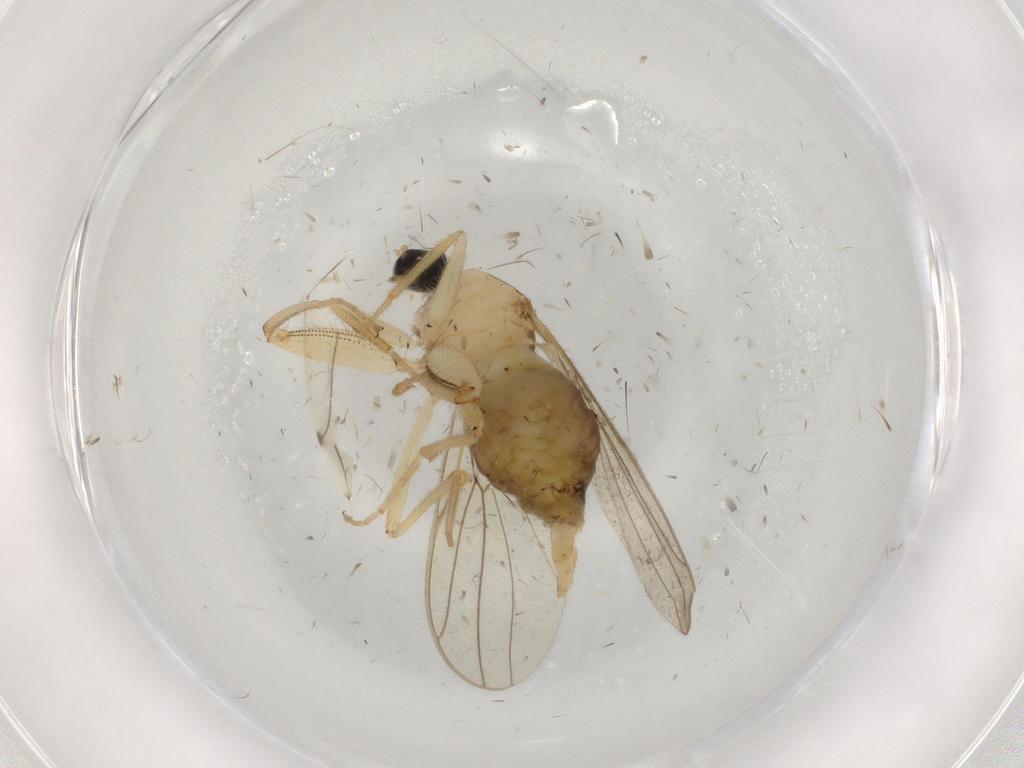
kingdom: Animalia
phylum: Arthropoda
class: Insecta
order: Diptera
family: Hybotidae
